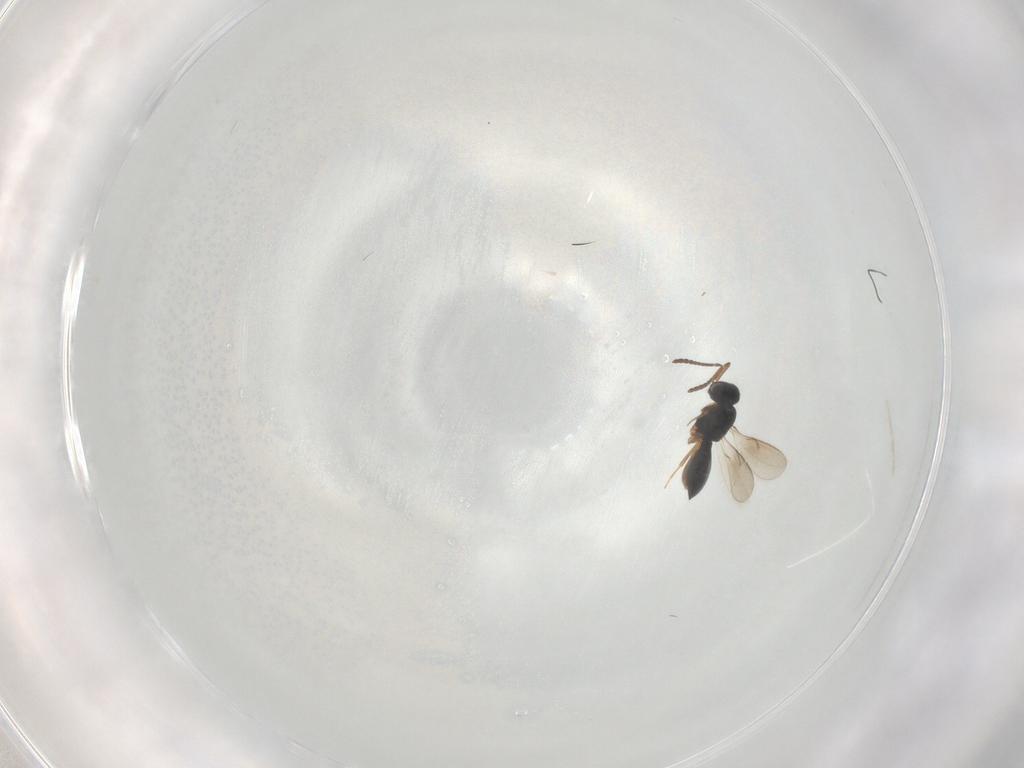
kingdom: Animalia
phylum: Arthropoda
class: Insecta
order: Hymenoptera
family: Scelionidae
